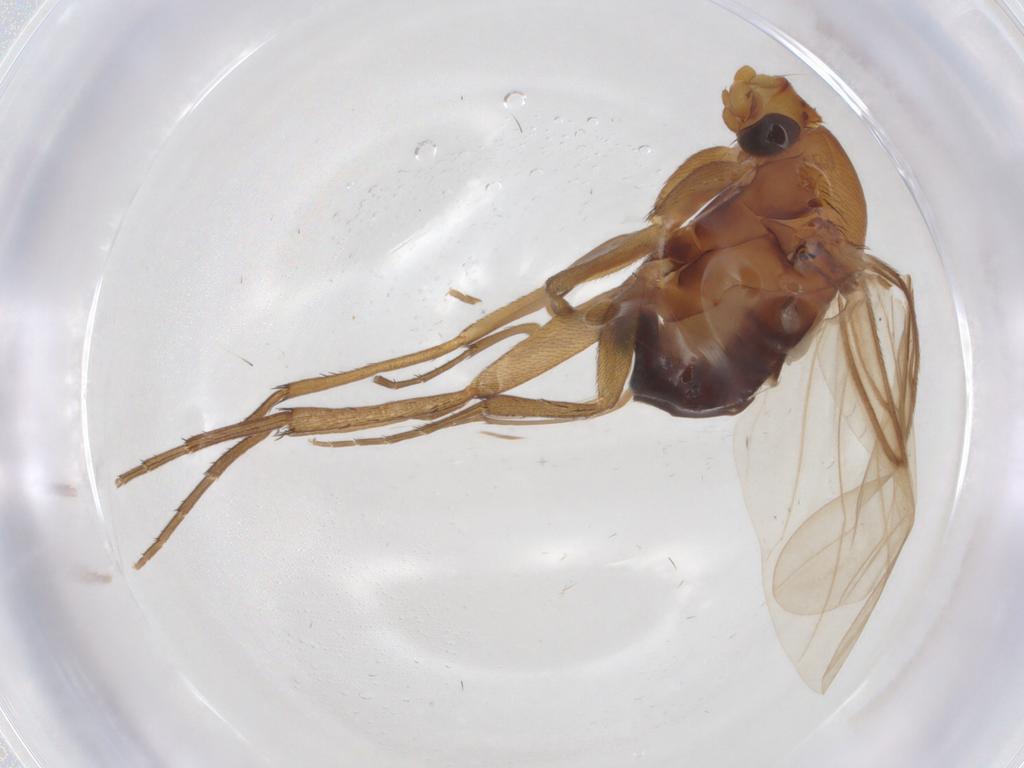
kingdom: Animalia
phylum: Arthropoda
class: Insecta
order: Diptera
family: Phoridae
